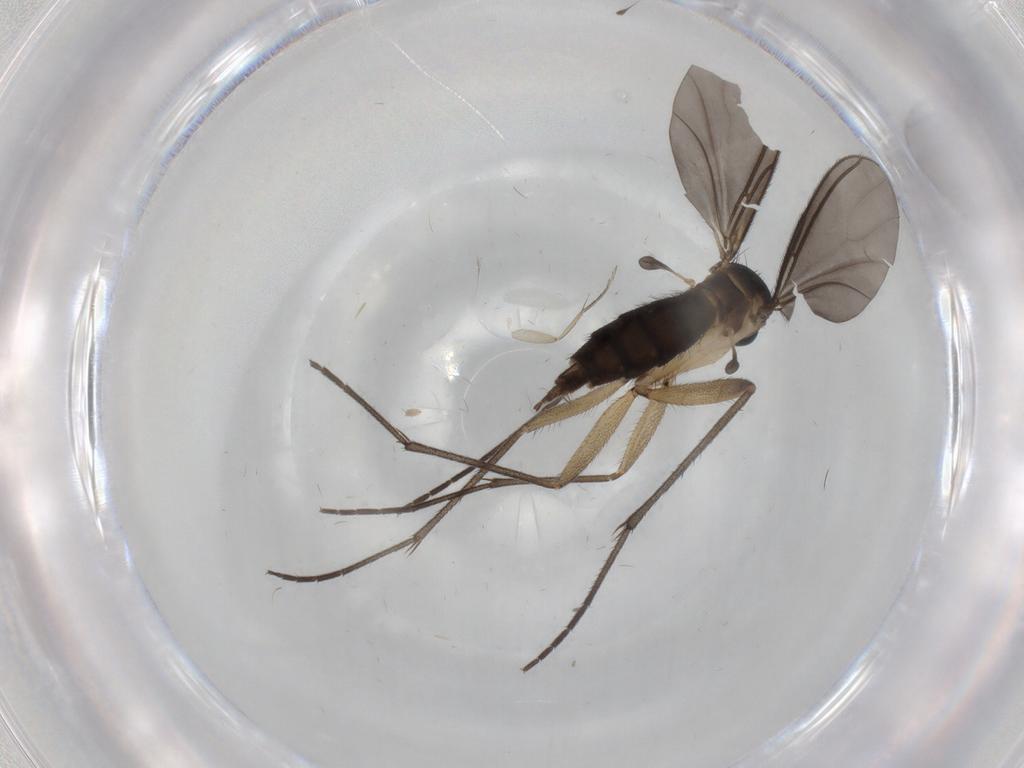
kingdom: Animalia
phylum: Arthropoda
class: Insecta
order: Diptera
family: Sciaridae
